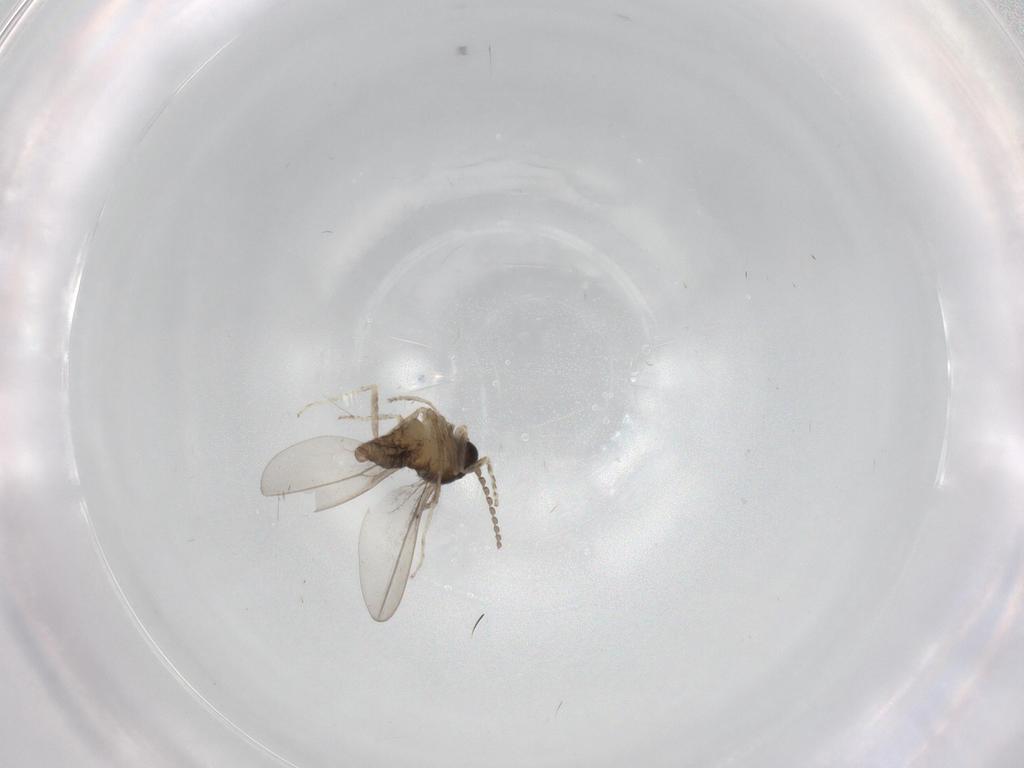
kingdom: Animalia
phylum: Arthropoda
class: Insecta
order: Diptera
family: Cecidomyiidae
